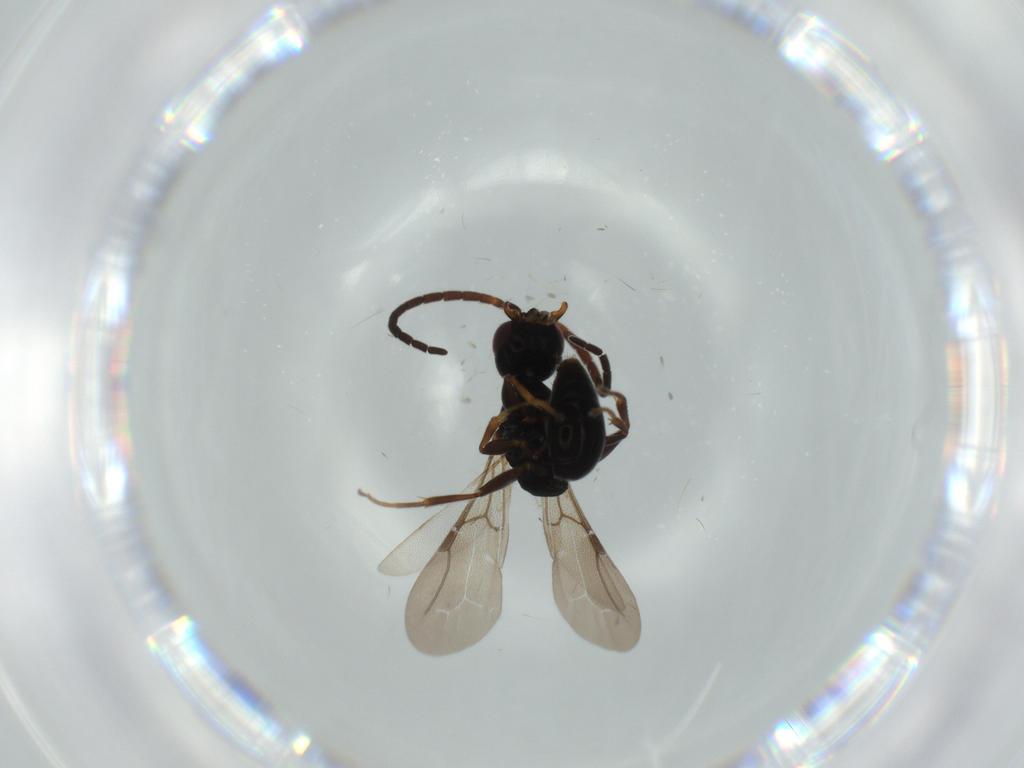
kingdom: Animalia
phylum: Arthropoda
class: Insecta
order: Hymenoptera
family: Bethylidae
